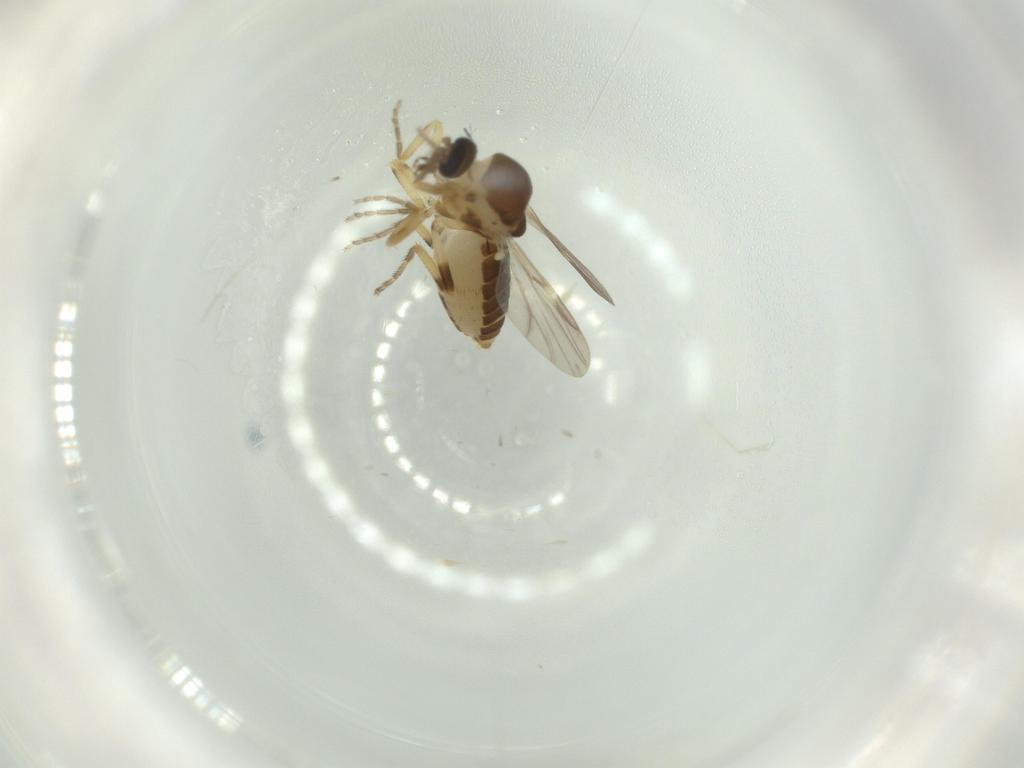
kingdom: Animalia
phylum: Arthropoda
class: Insecta
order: Diptera
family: Ceratopogonidae
